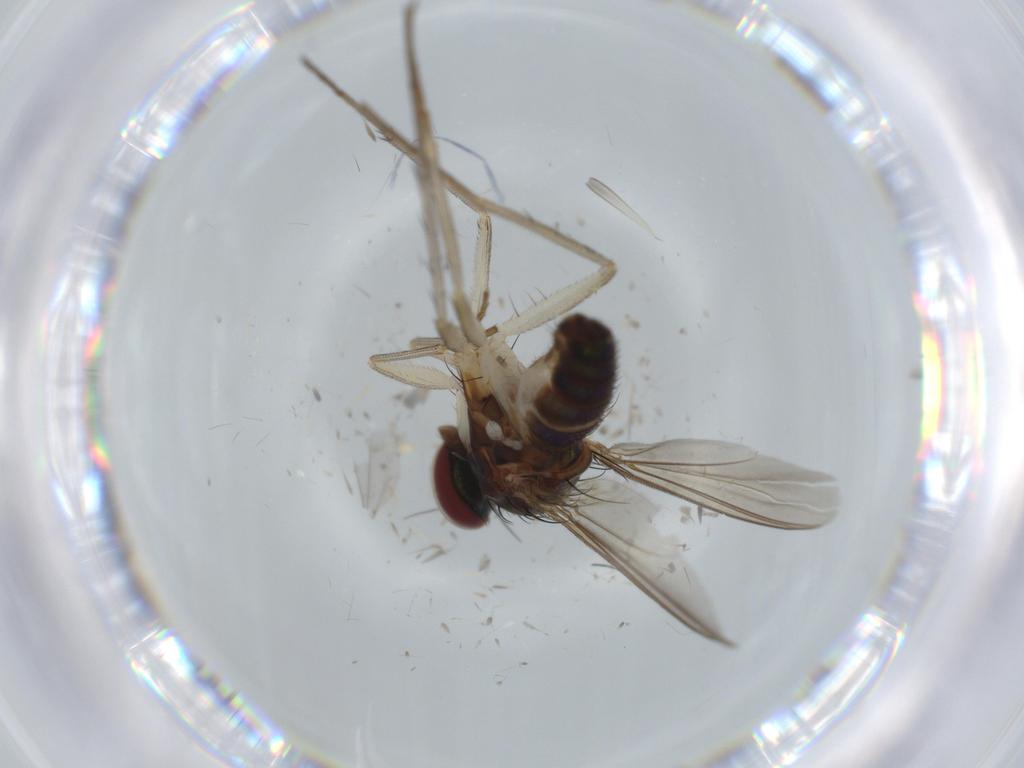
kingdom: Animalia
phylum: Arthropoda
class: Insecta
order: Diptera
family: Dolichopodidae
